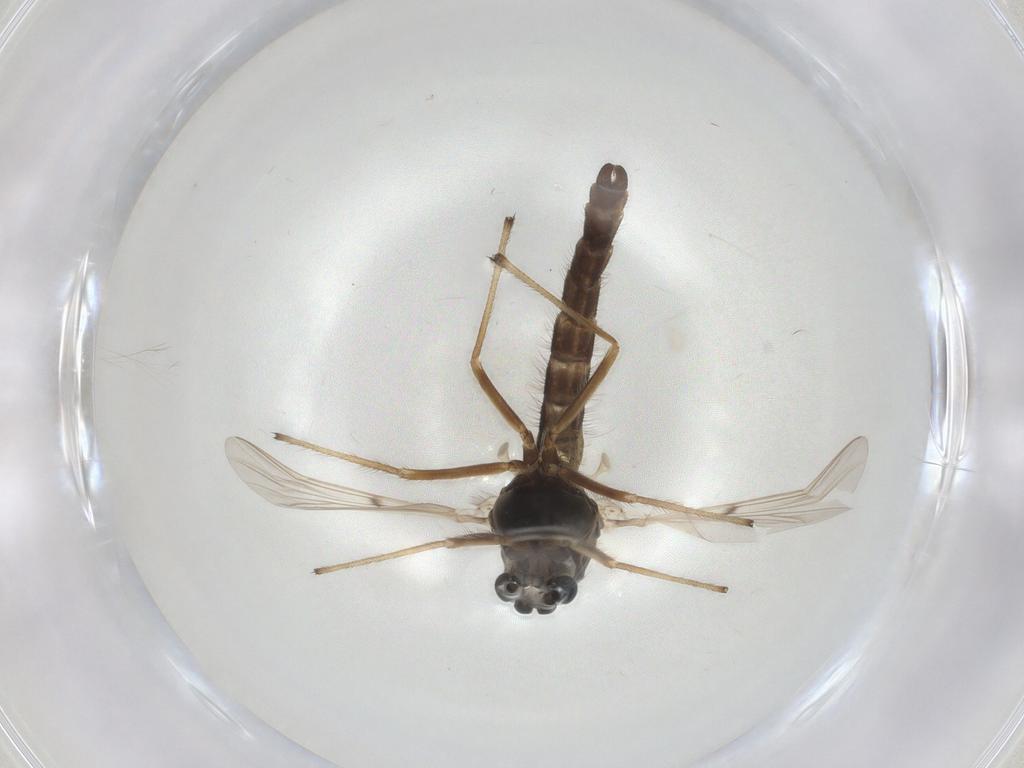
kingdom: Animalia
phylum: Arthropoda
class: Insecta
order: Diptera
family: Chironomidae
